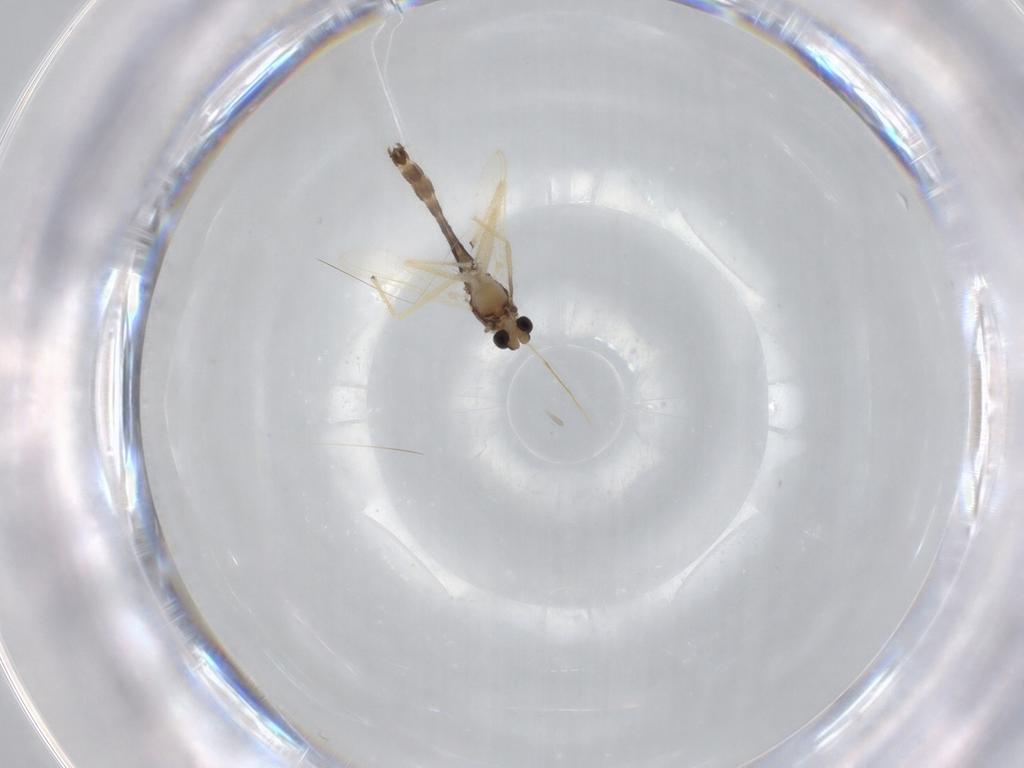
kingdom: Animalia
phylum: Arthropoda
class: Insecta
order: Diptera
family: Chironomidae
